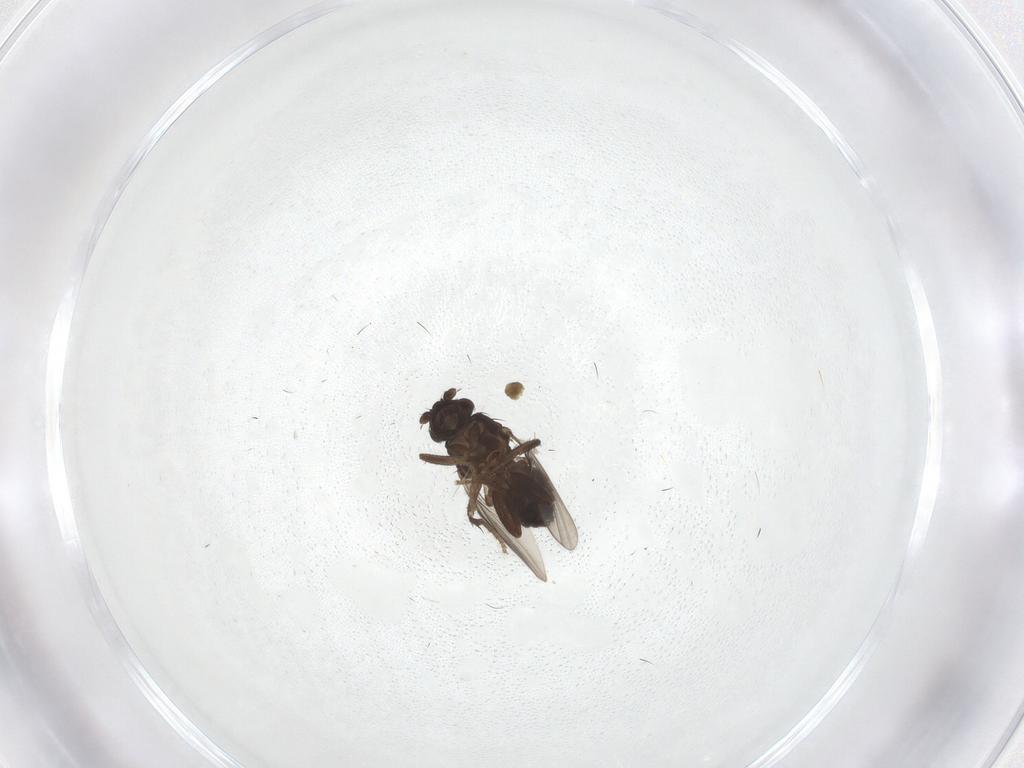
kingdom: Animalia
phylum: Arthropoda
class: Insecta
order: Diptera
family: Sphaeroceridae
